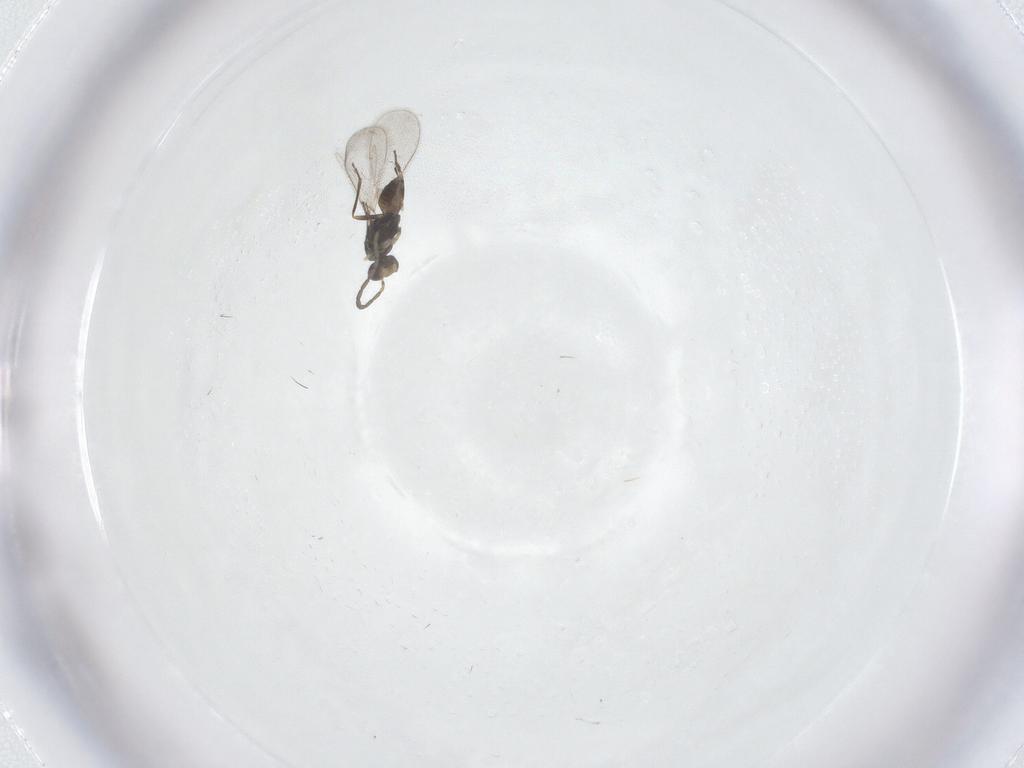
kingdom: Animalia
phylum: Arthropoda
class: Insecta
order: Hymenoptera
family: Mymaridae
